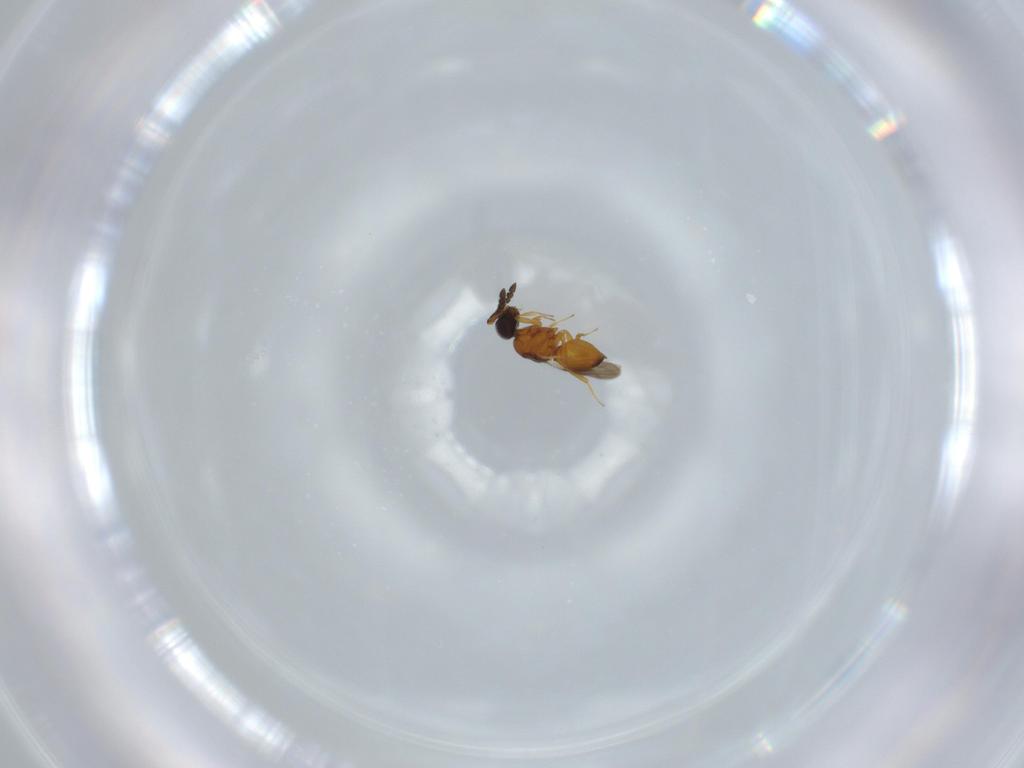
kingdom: Animalia
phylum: Arthropoda
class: Insecta
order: Hymenoptera
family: Ceraphronidae
